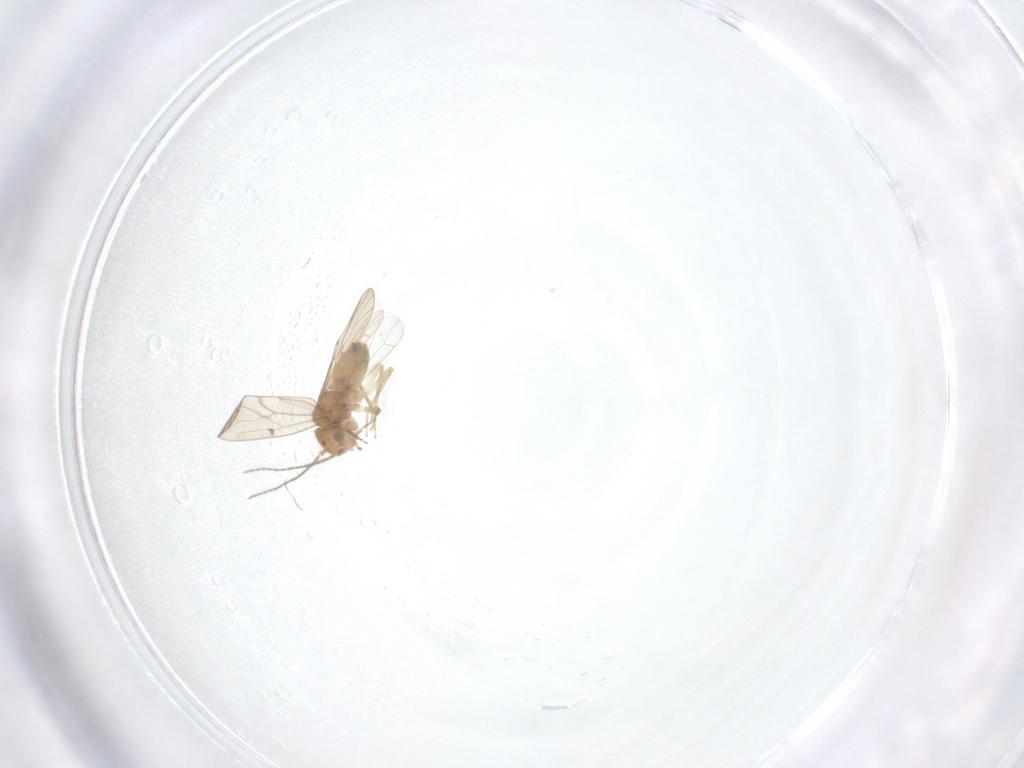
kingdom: Animalia
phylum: Arthropoda
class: Insecta
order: Psocodea
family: Ectopsocidae
